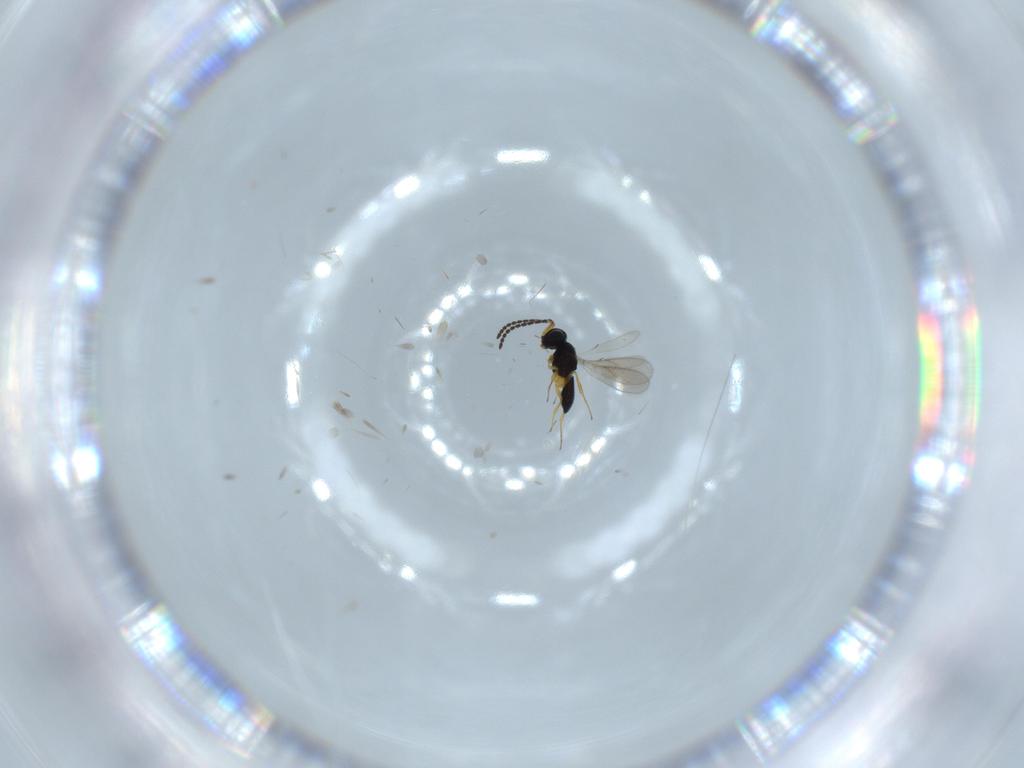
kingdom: Animalia
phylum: Arthropoda
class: Insecta
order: Hymenoptera
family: Scelionidae
